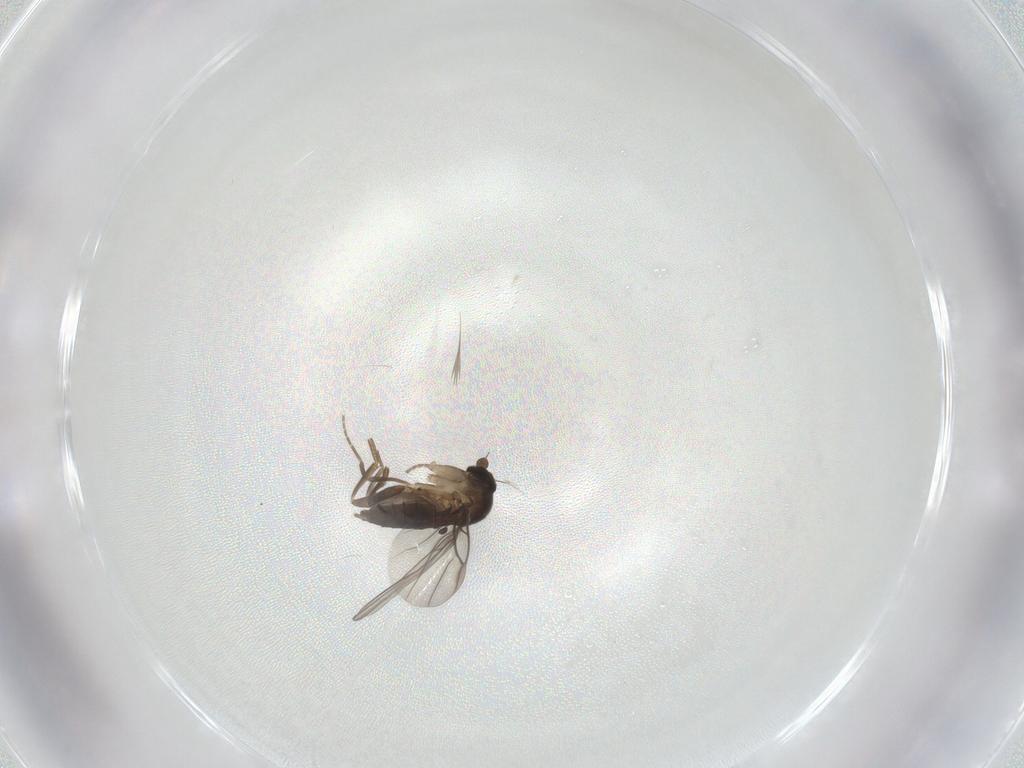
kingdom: Animalia
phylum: Arthropoda
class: Insecta
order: Diptera
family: Phoridae
